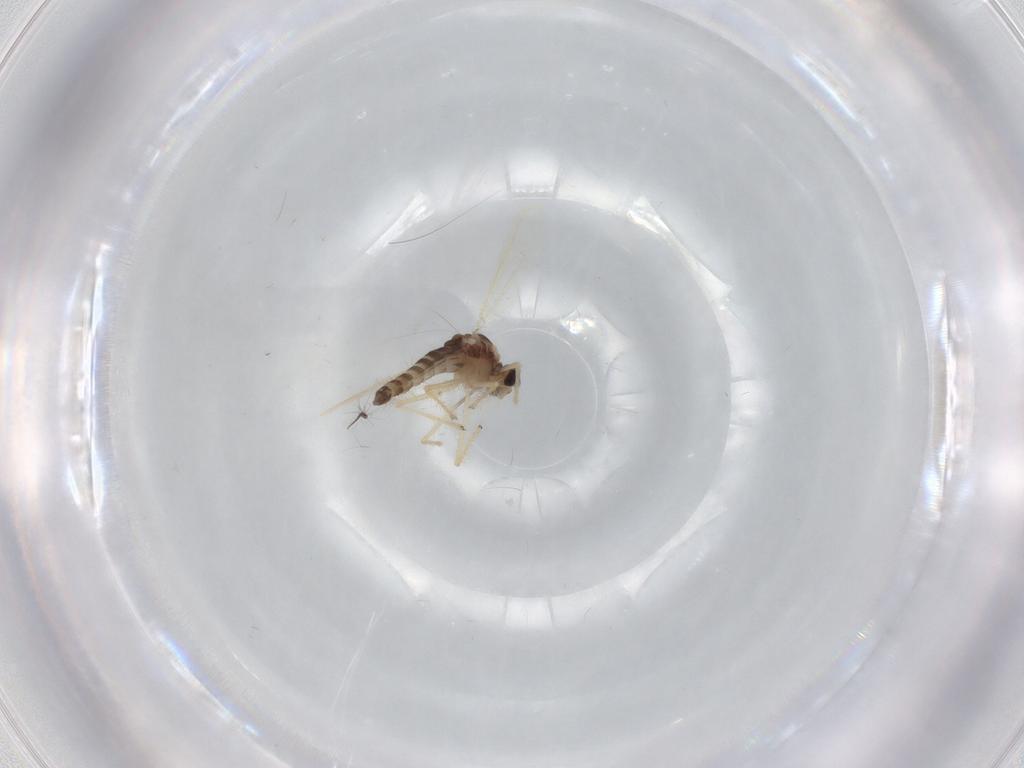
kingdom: Animalia
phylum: Arthropoda
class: Insecta
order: Diptera
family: Chironomidae
